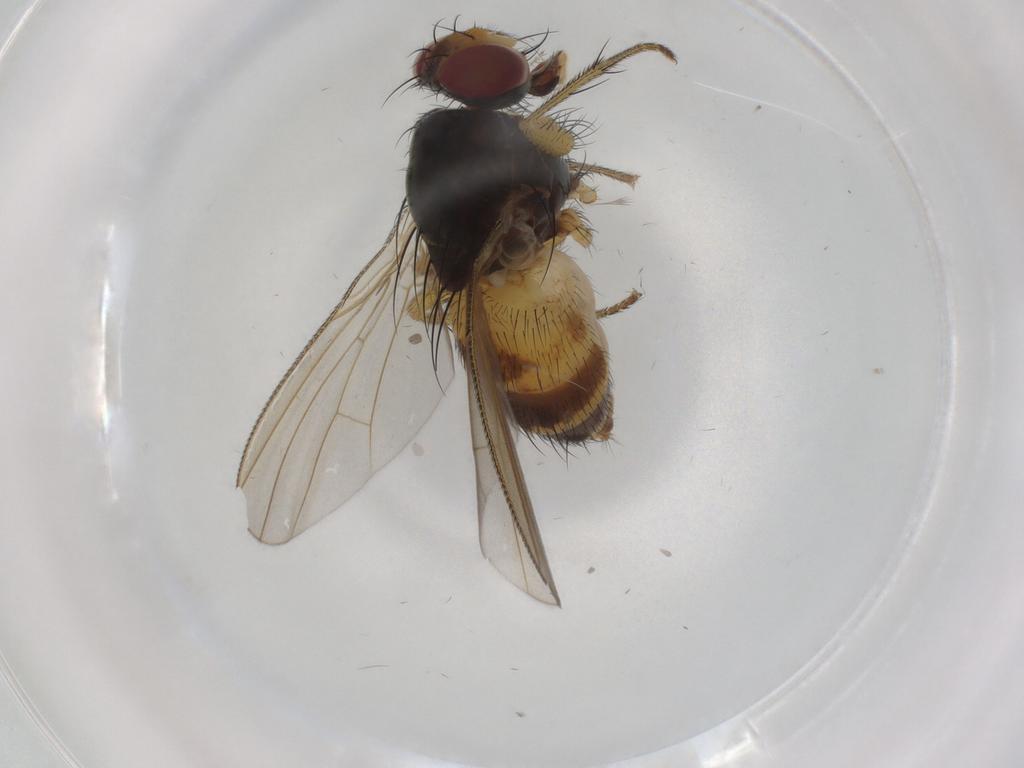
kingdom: Animalia
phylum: Arthropoda
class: Insecta
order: Diptera
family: Muscidae
